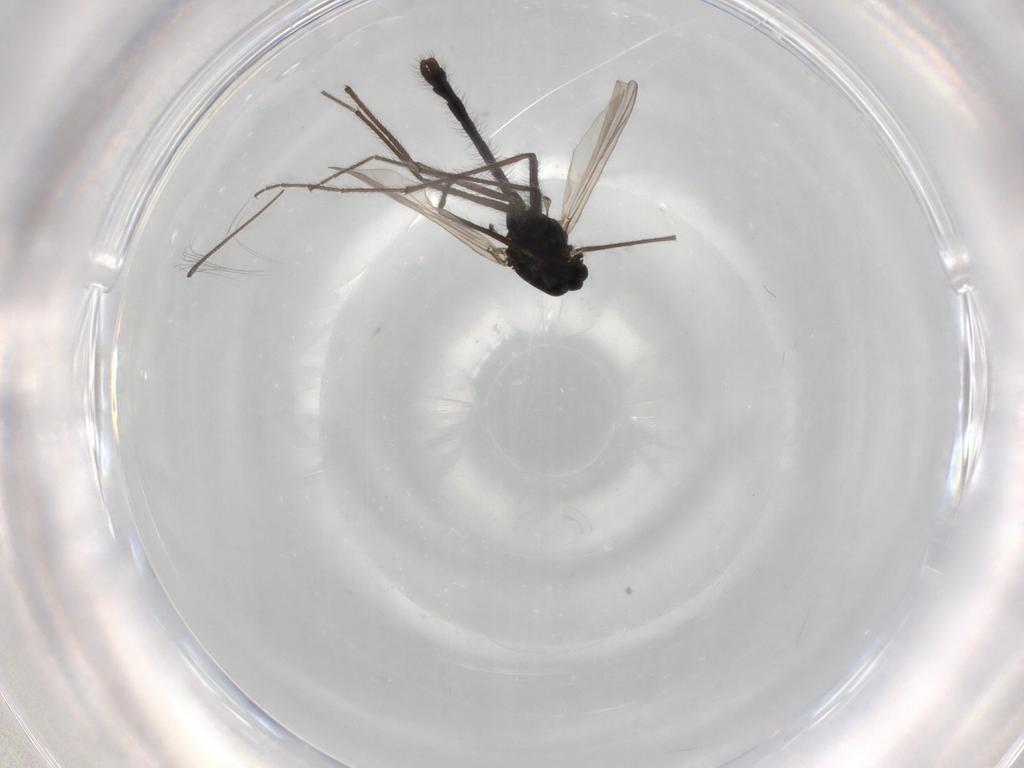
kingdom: Animalia
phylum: Arthropoda
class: Insecta
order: Diptera
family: Chironomidae
